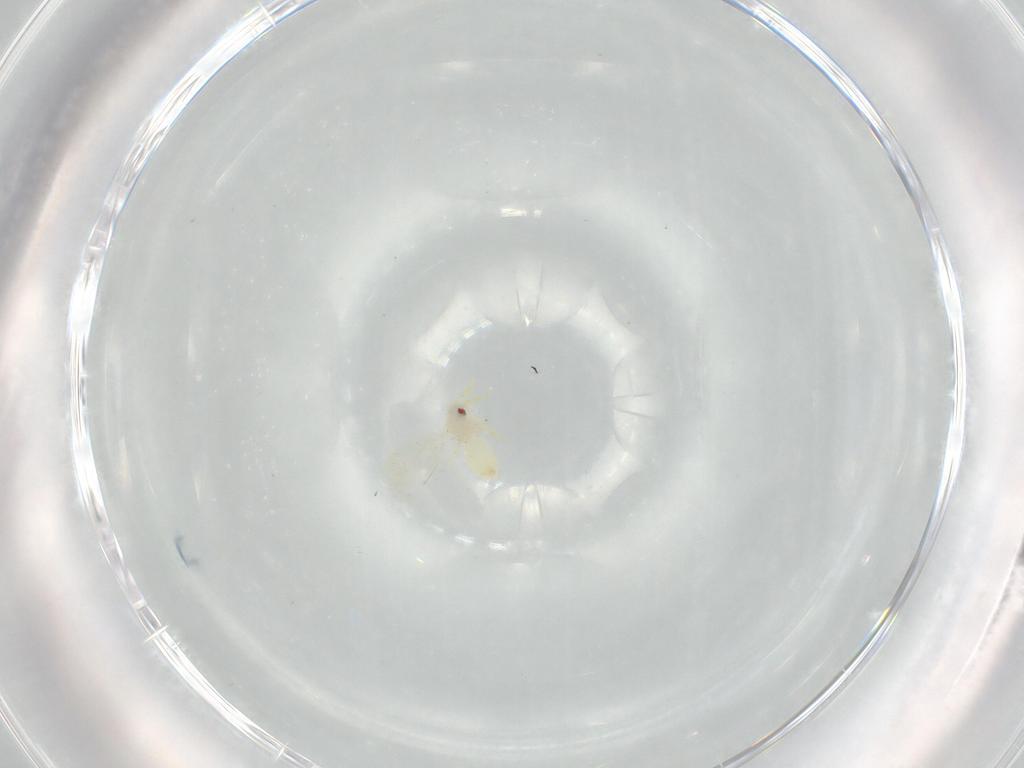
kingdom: Animalia
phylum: Arthropoda
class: Insecta
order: Hemiptera
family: Aleyrodidae
